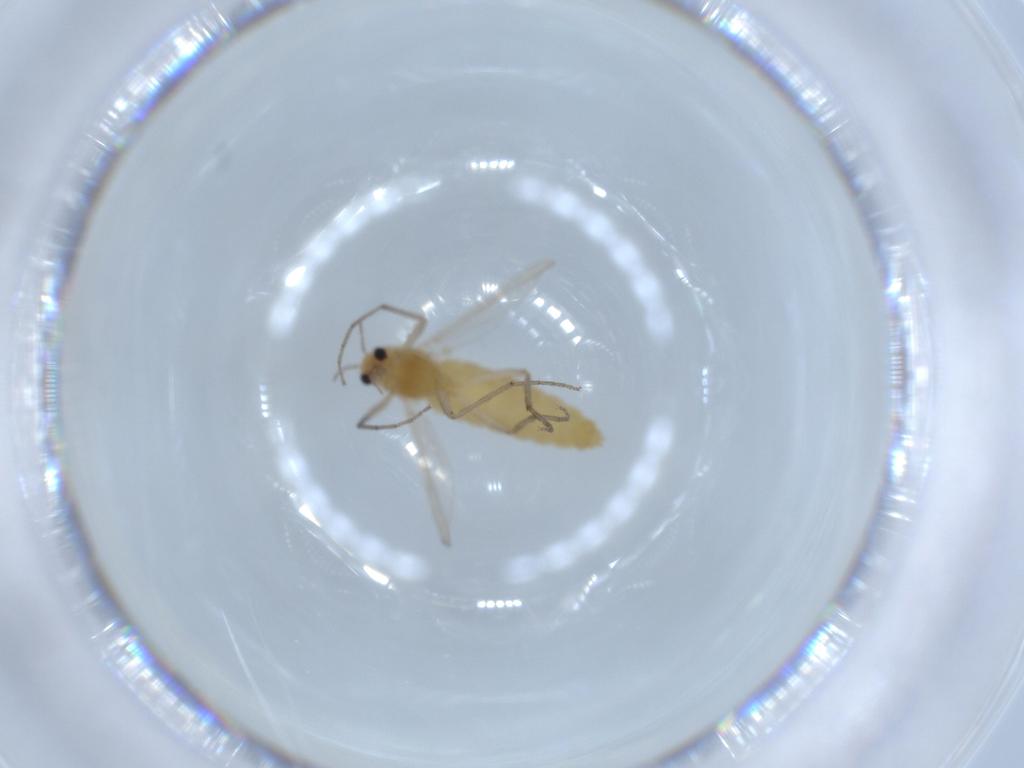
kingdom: Animalia
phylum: Arthropoda
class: Insecta
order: Diptera
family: Chironomidae
